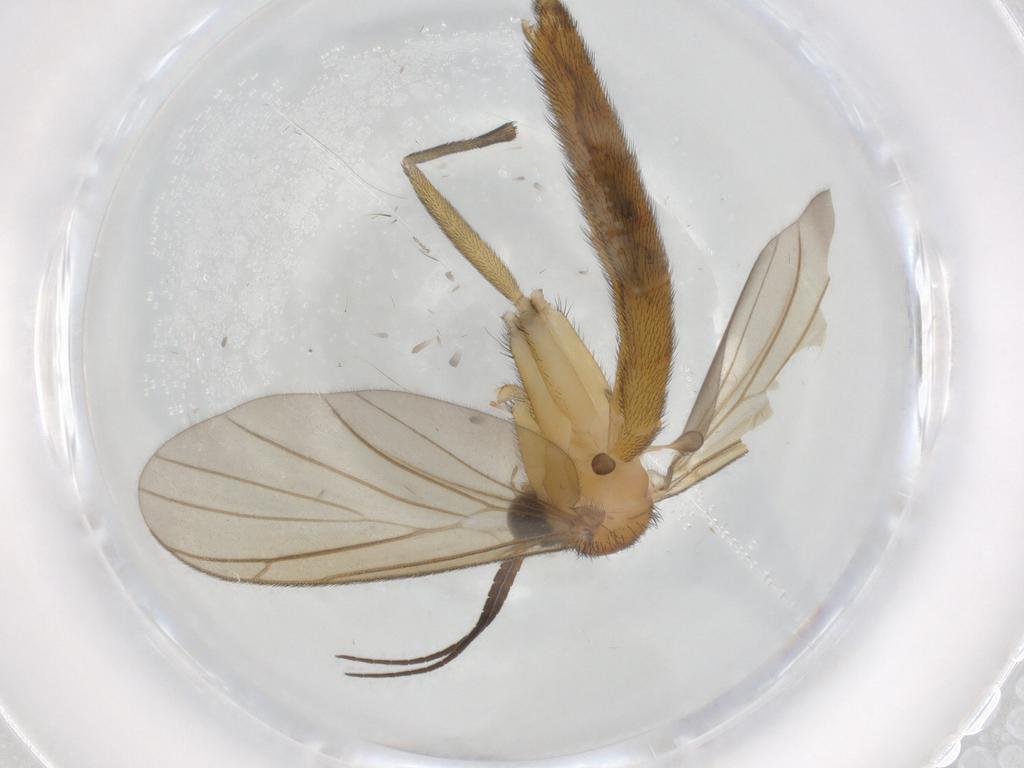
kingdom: Animalia
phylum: Arthropoda
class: Insecta
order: Diptera
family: Cecidomyiidae
